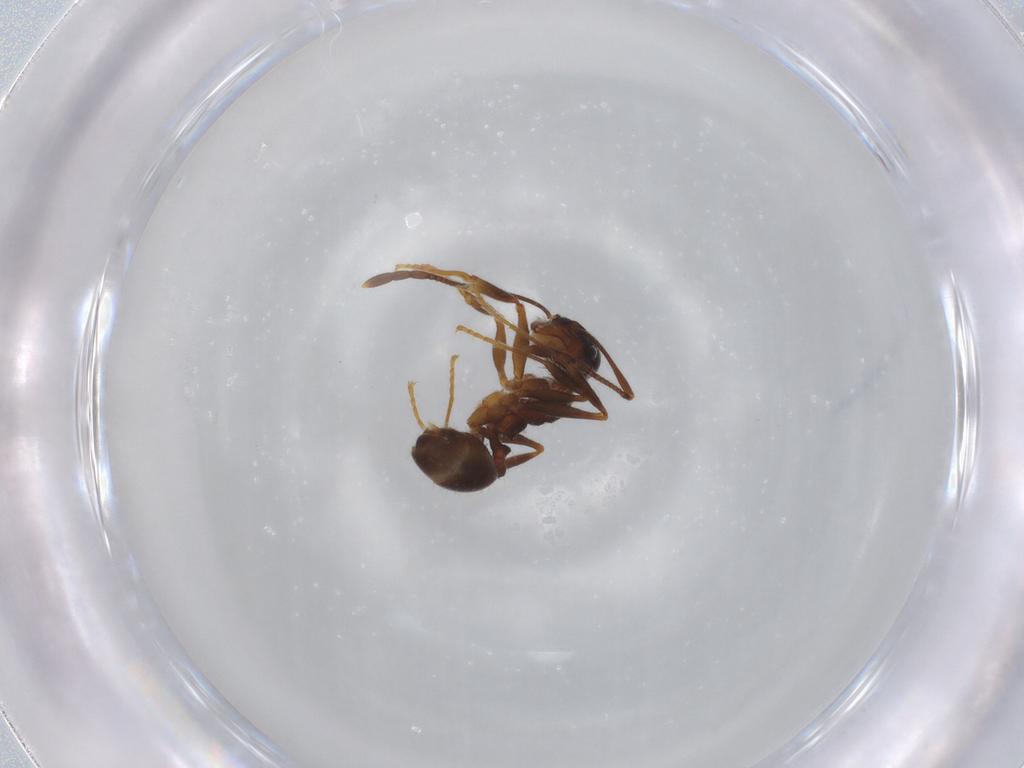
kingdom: Animalia
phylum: Arthropoda
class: Insecta
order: Hymenoptera
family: Formicidae
